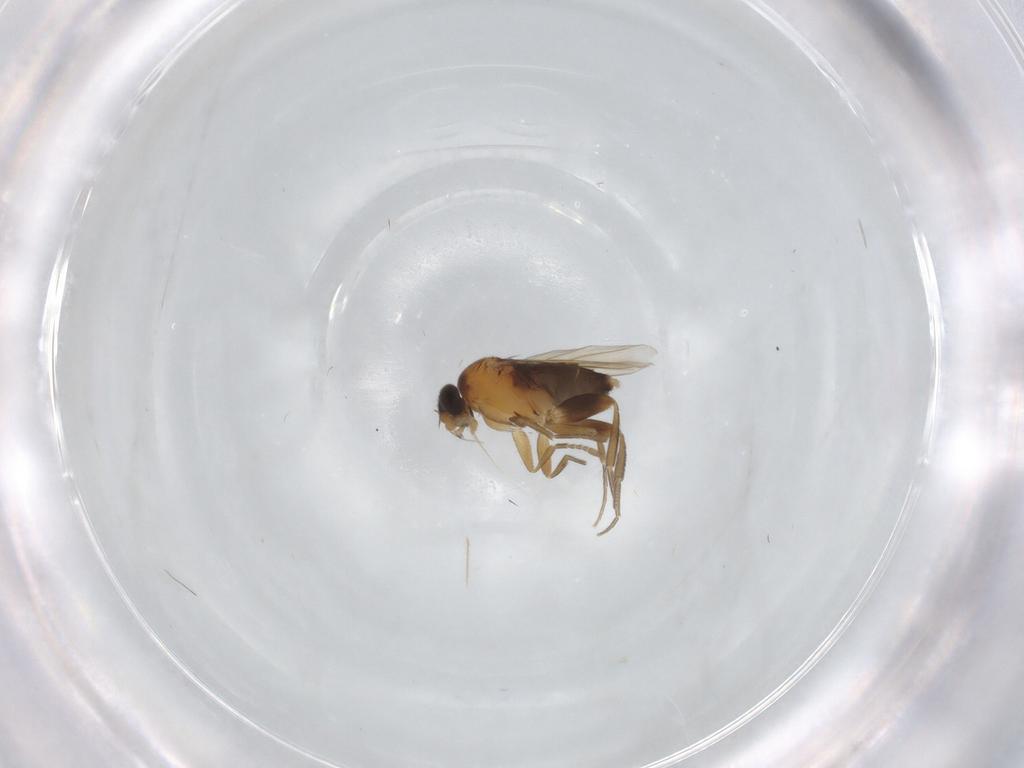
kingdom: Animalia
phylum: Arthropoda
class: Insecta
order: Diptera
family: Phoridae
